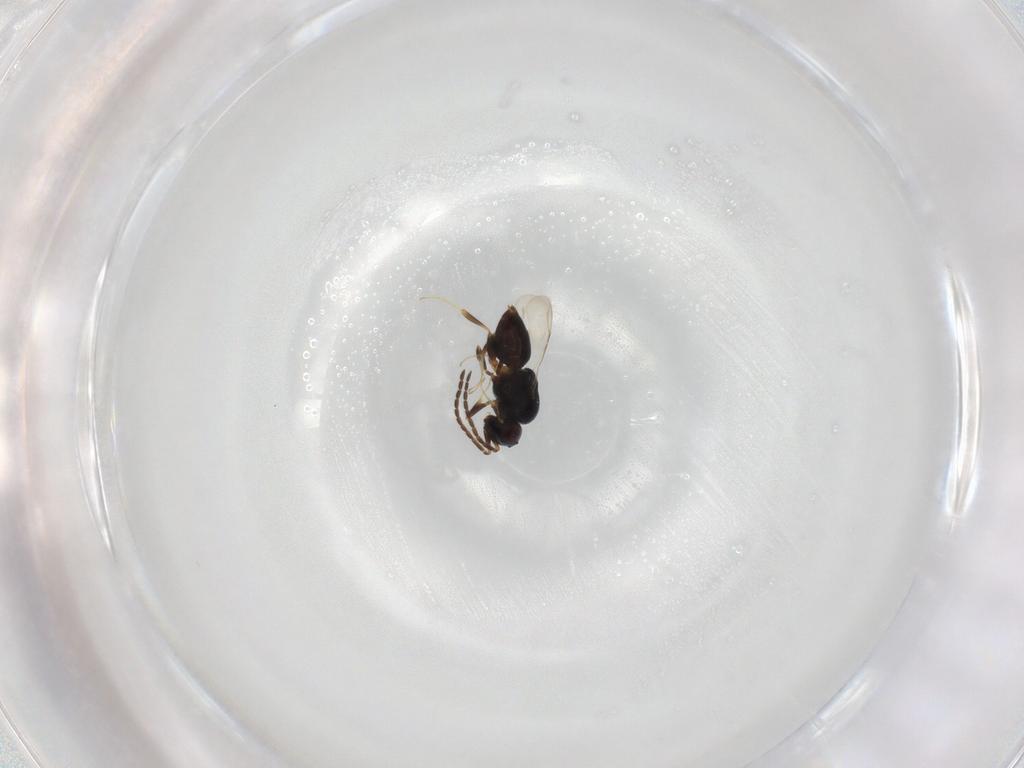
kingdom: Animalia
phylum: Arthropoda
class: Insecta
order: Hymenoptera
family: Ceraphronidae
